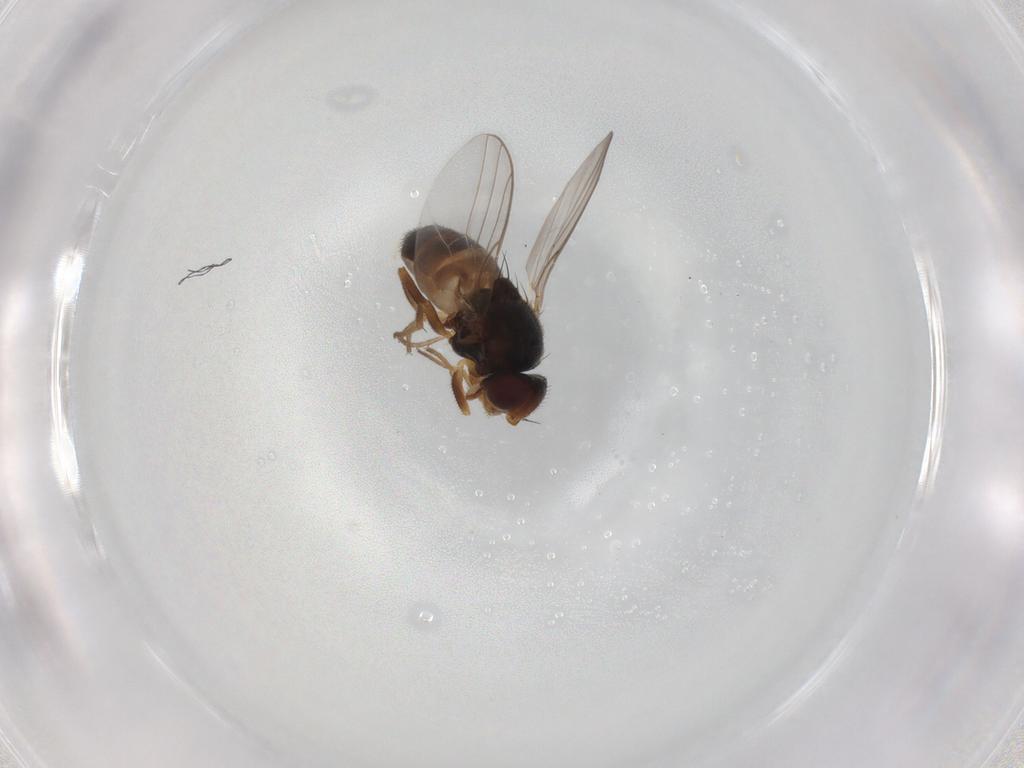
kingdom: Animalia
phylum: Arthropoda
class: Insecta
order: Diptera
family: Chloropidae
